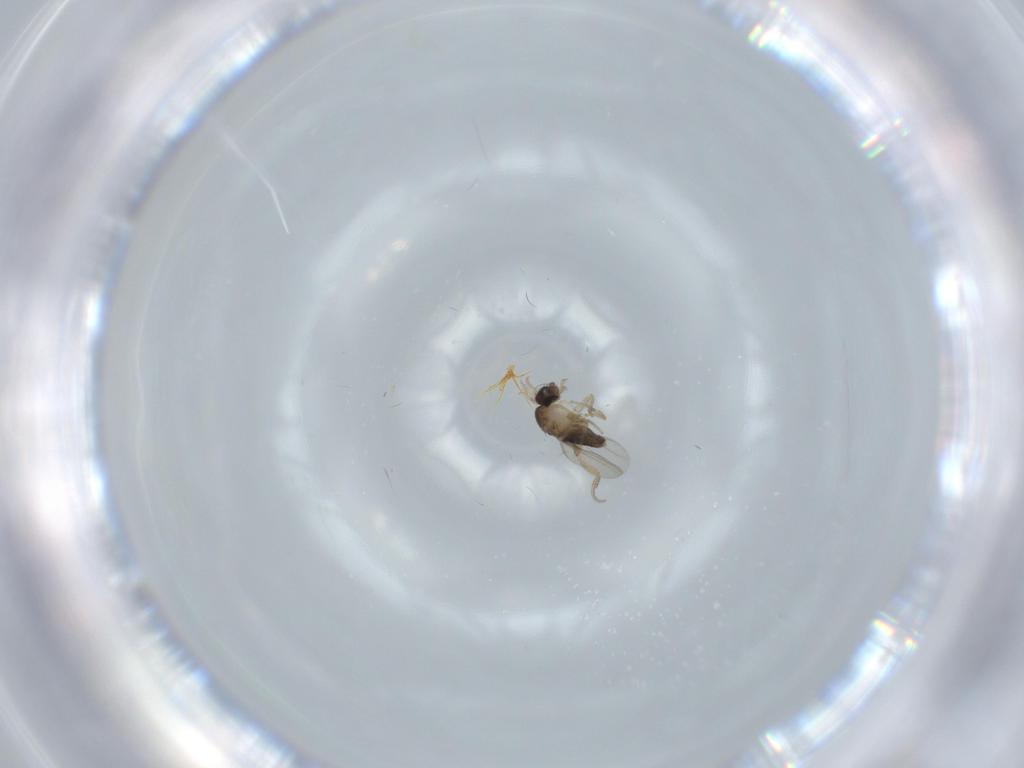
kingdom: Animalia
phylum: Arthropoda
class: Insecta
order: Diptera
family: Phoridae
